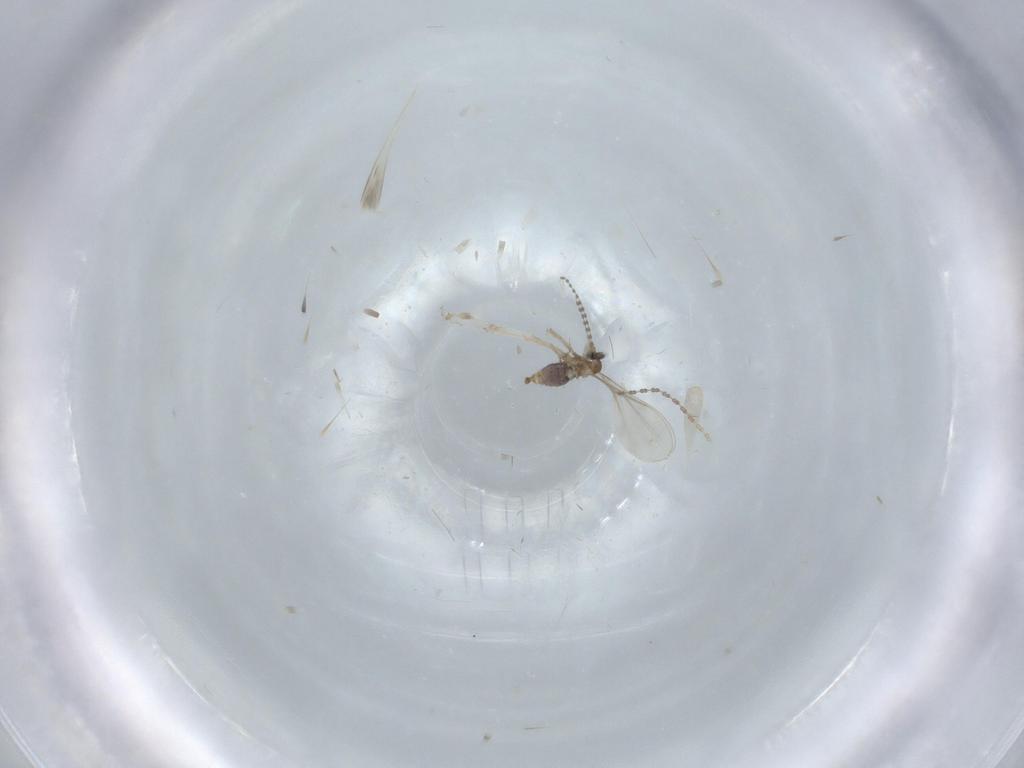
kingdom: Animalia
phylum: Arthropoda
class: Insecta
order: Diptera
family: Cecidomyiidae
